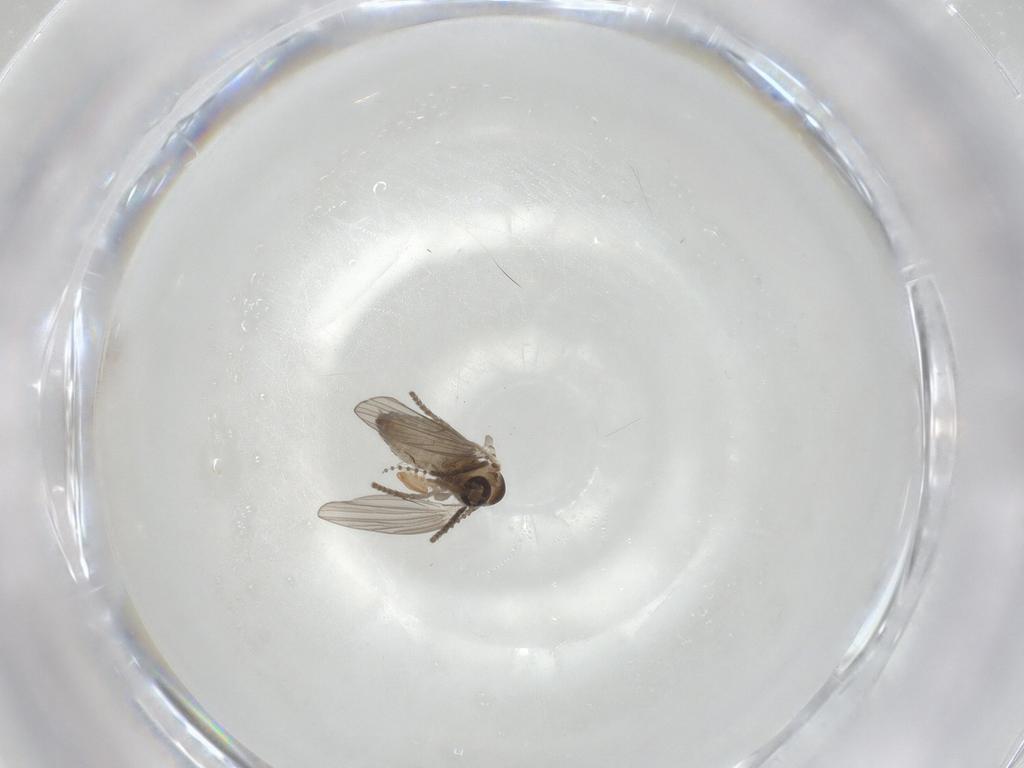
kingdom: Animalia
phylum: Arthropoda
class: Insecta
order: Diptera
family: Psychodidae
